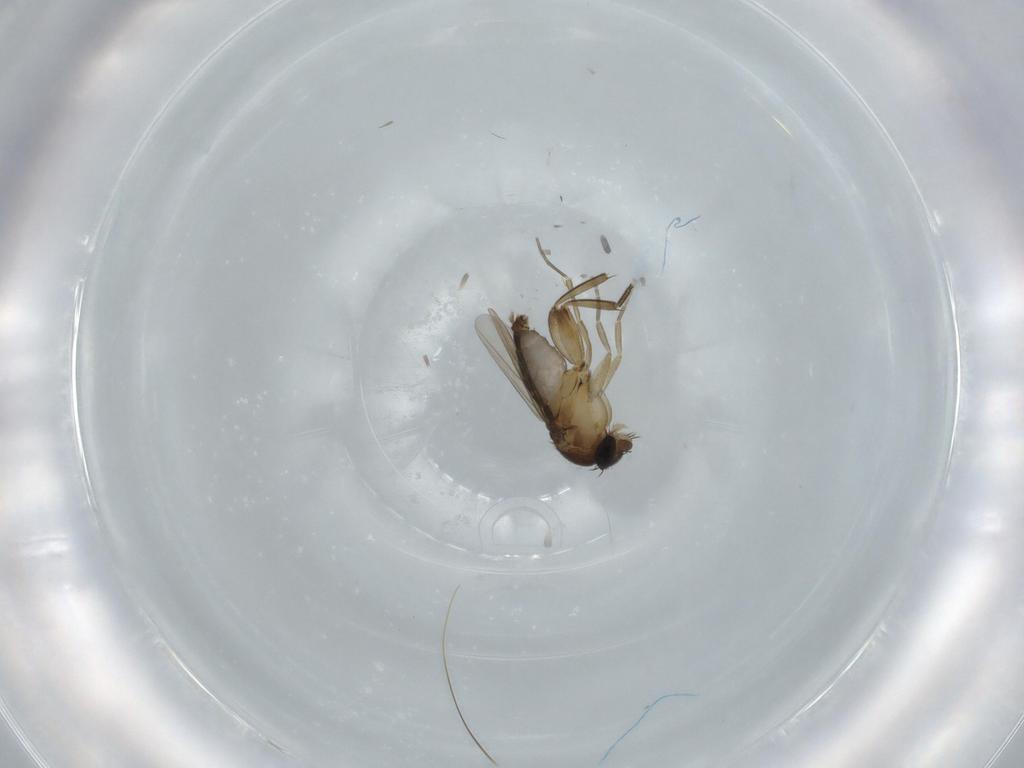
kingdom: Animalia
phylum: Arthropoda
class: Insecta
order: Diptera
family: Phoridae
